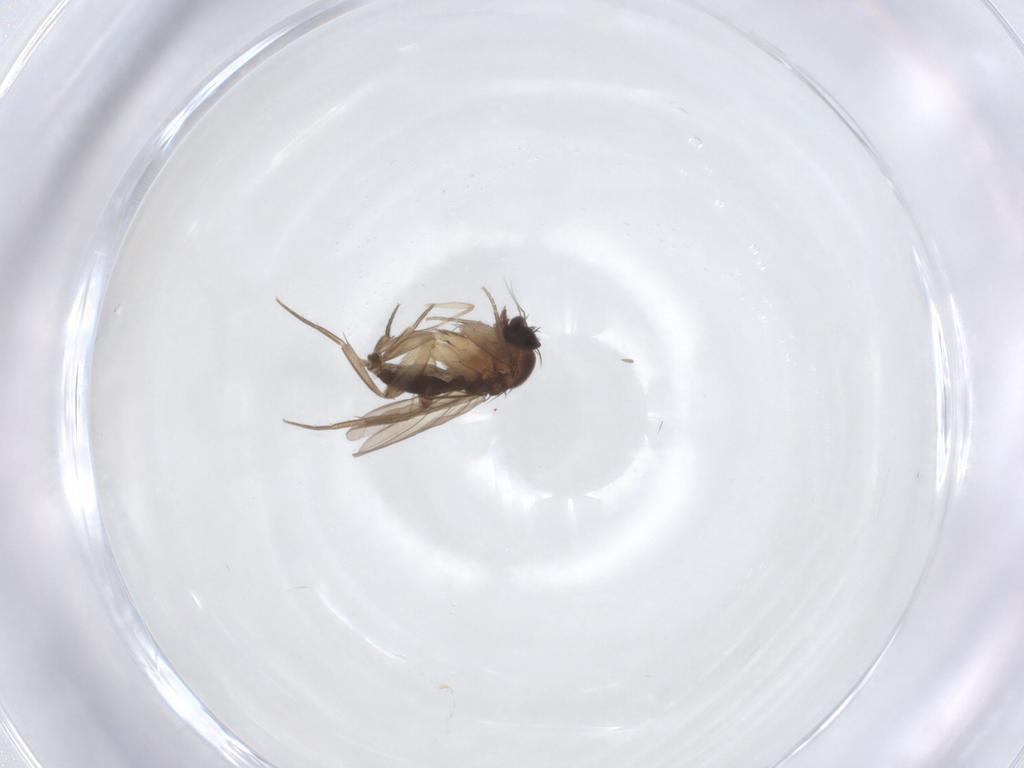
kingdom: Animalia
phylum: Arthropoda
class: Insecta
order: Diptera
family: Phoridae
